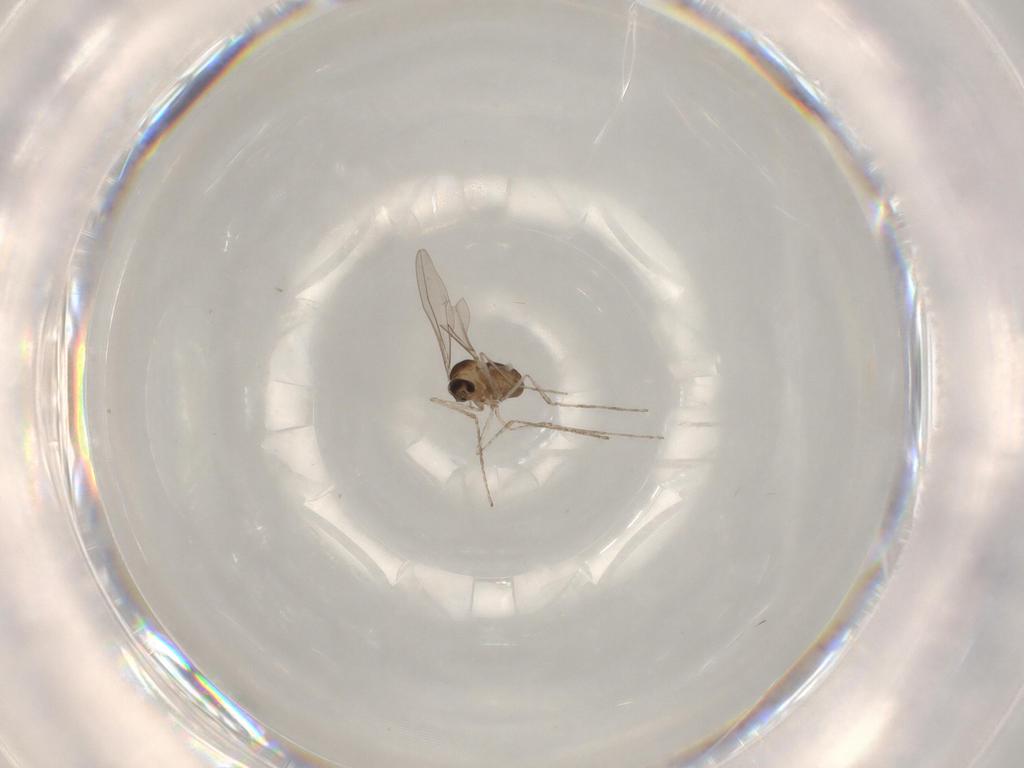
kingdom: Animalia
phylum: Arthropoda
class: Insecta
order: Diptera
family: Cecidomyiidae
